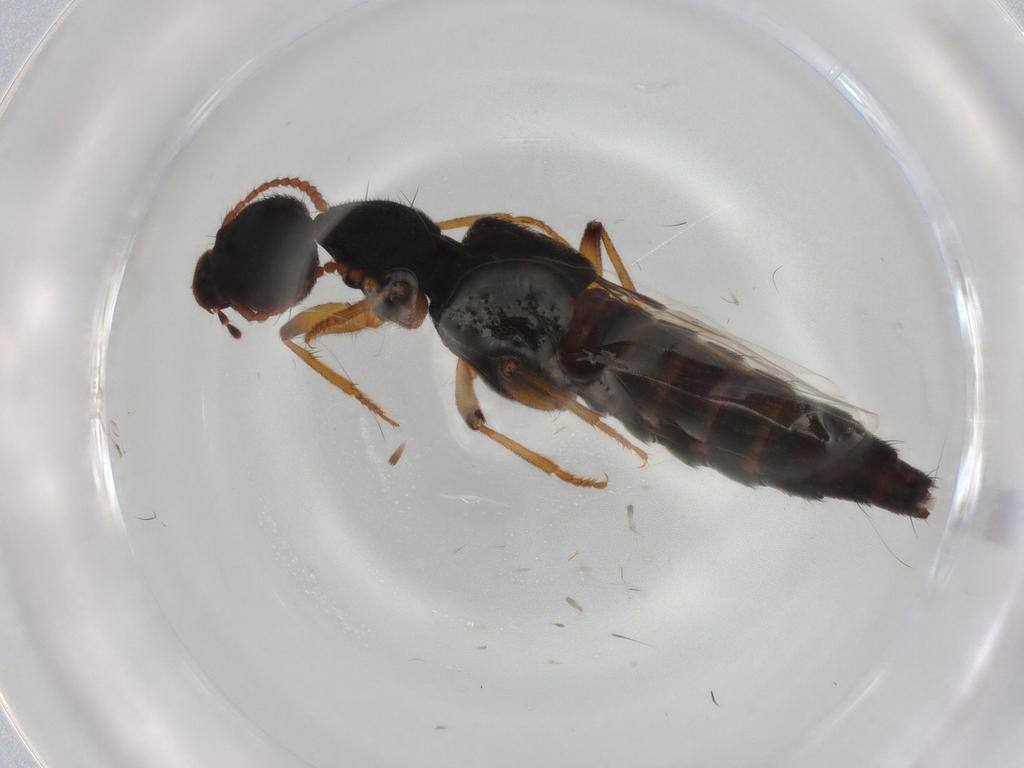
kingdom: Animalia
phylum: Arthropoda
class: Insecta
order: Coleoptera
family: Staphylinidae
